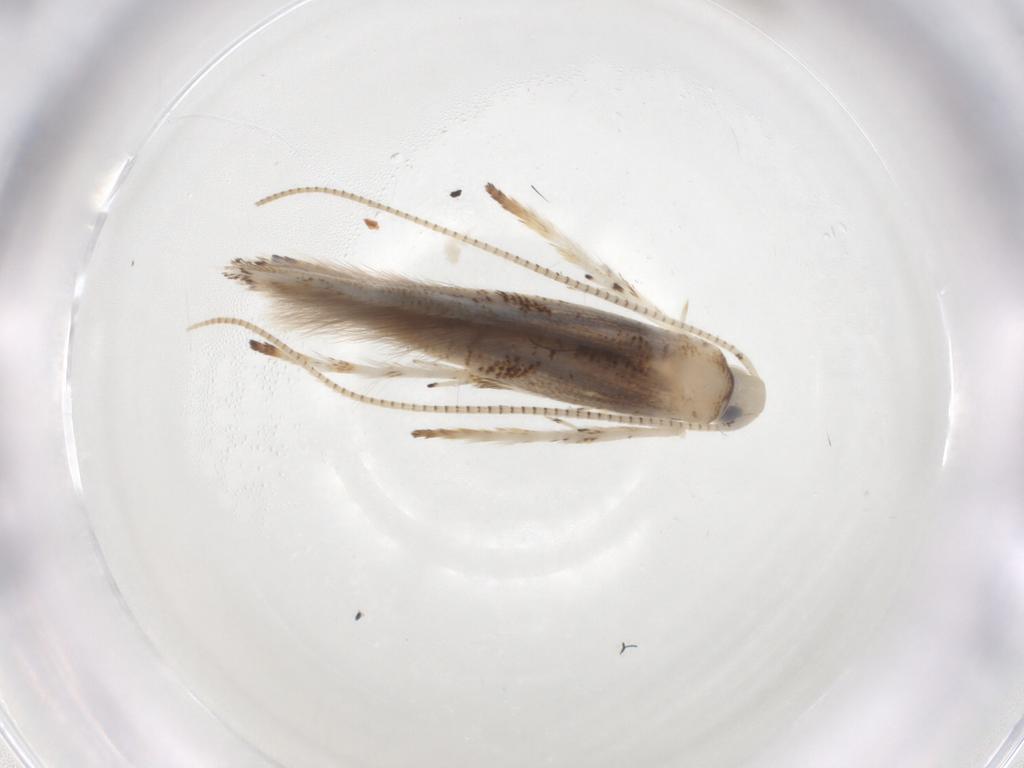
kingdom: Animalia
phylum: Arthropoda
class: Insecta
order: Lepidoptera
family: Gracillariidae
